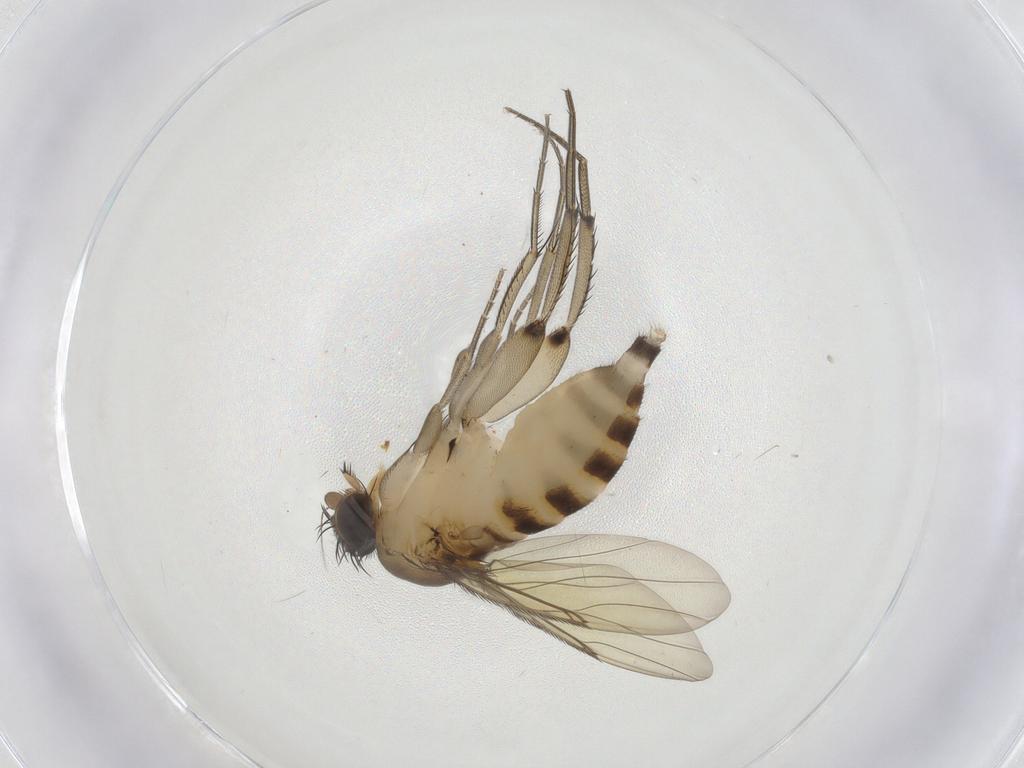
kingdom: Animalia
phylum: Arthropoda
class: Insecta
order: Diptera
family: Phoridae
